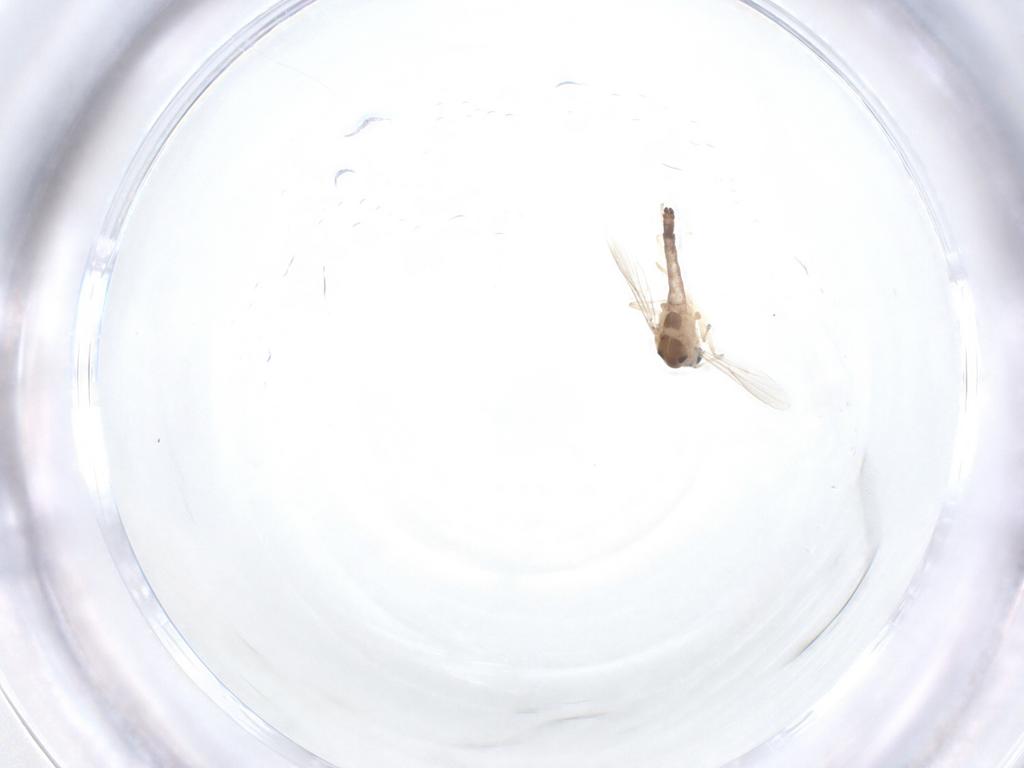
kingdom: Animalia
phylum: Arthropoda
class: Insecta
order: Diptera
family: Chironomidae
